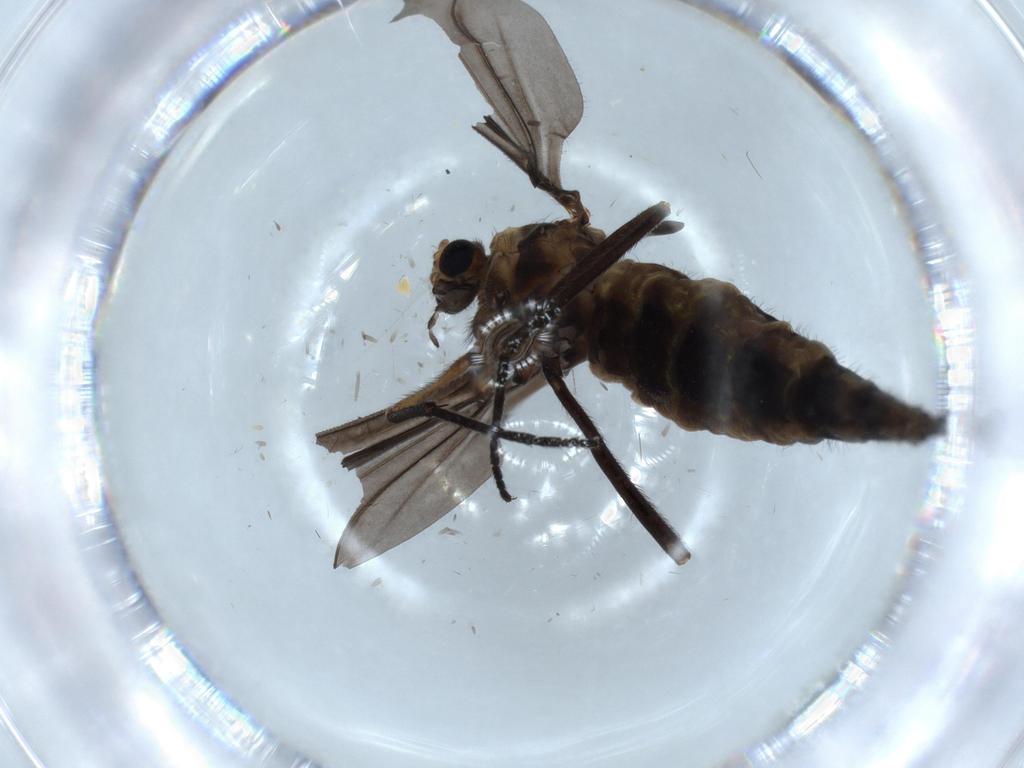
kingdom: Animalia
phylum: Arthropoda
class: Insecta
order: Diptera
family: Sciaridae
